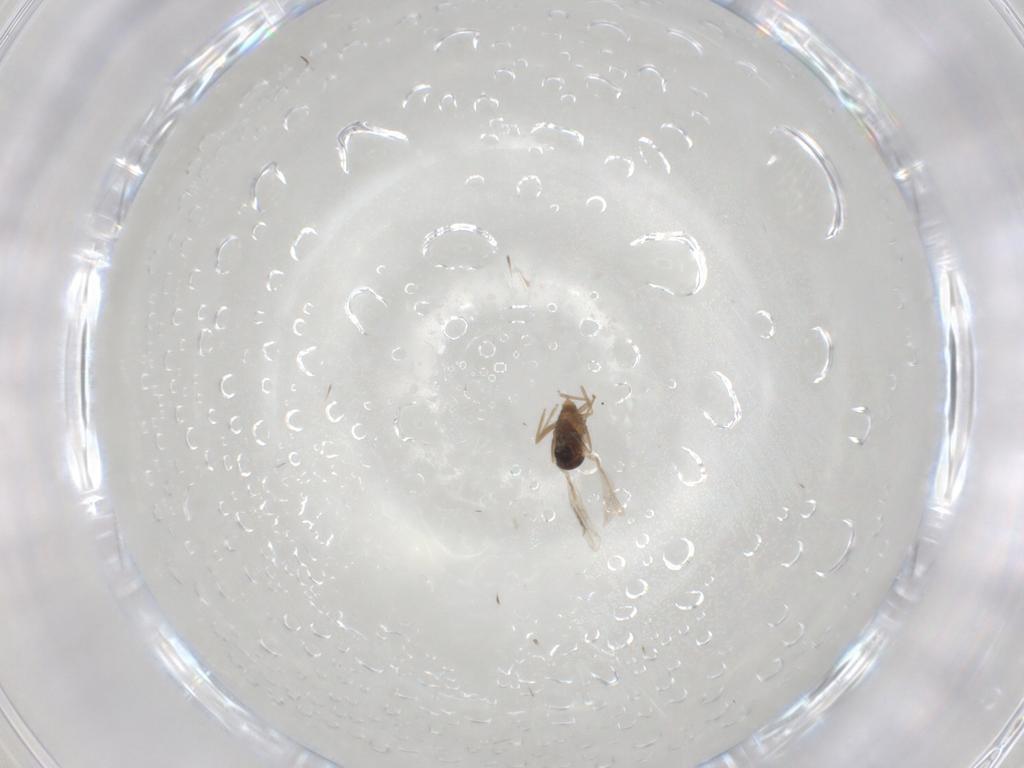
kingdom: Animalia
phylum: Arthropoda
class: Insecta
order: Diptera
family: Cecidomyiidae
